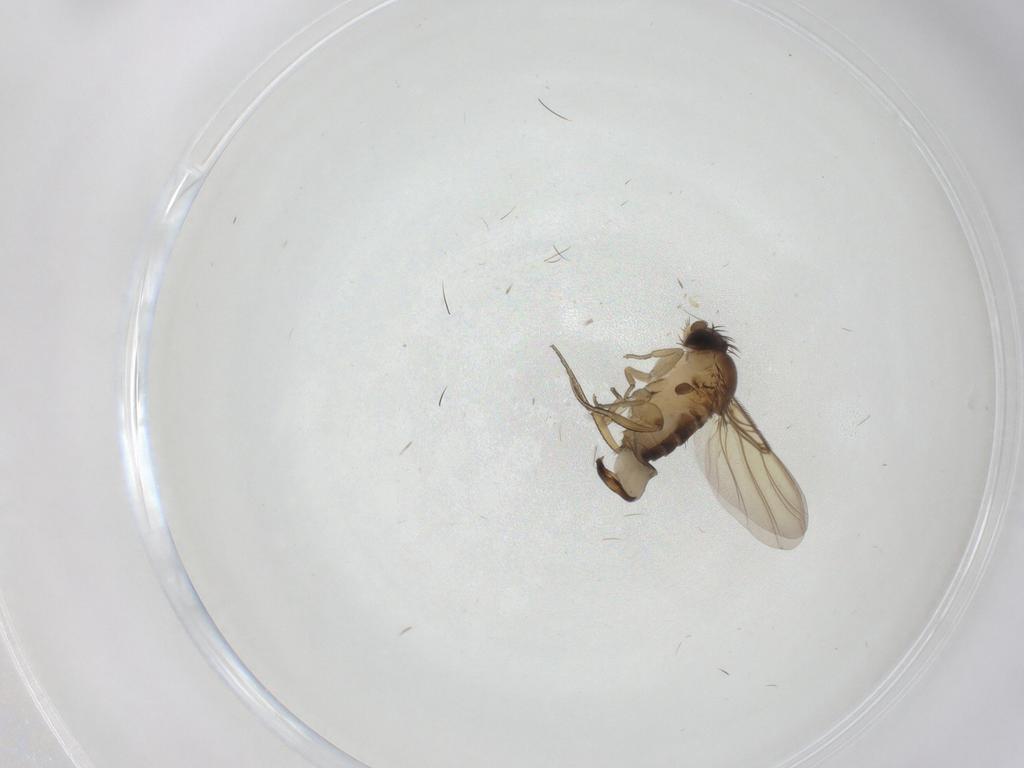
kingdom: Animalia
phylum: Arthropoda
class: Insecta
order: Diptera
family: Phoridae
